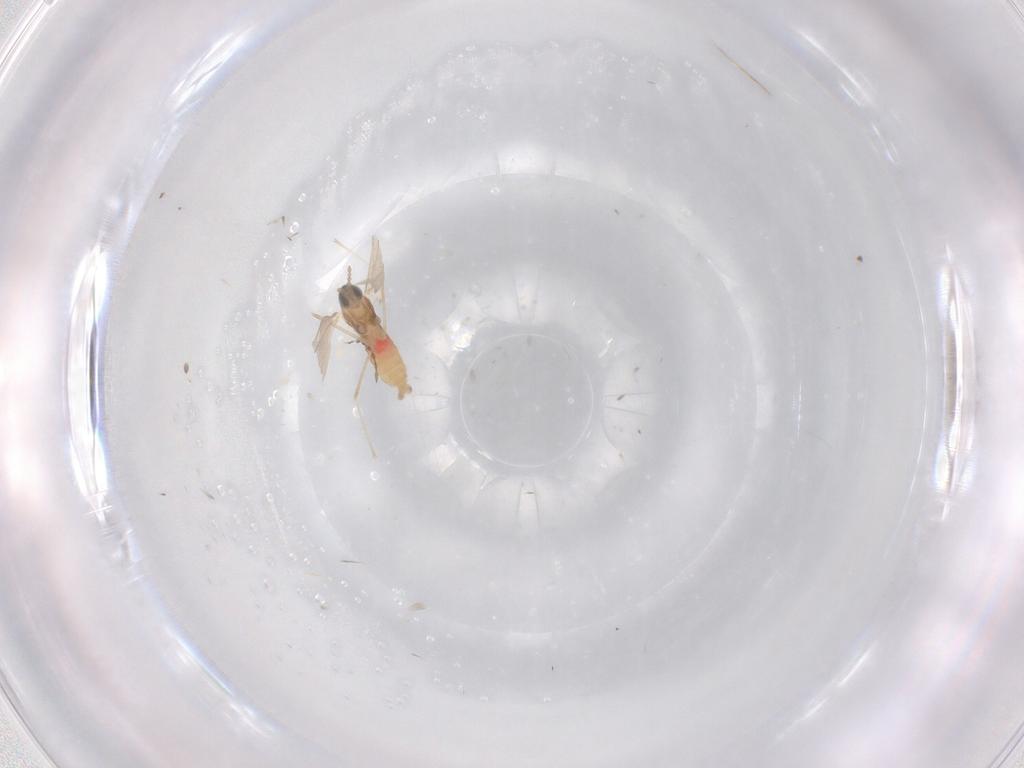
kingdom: Animalia
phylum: Arthropoda
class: Insecta
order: Diptera
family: Cecidomyiidae
